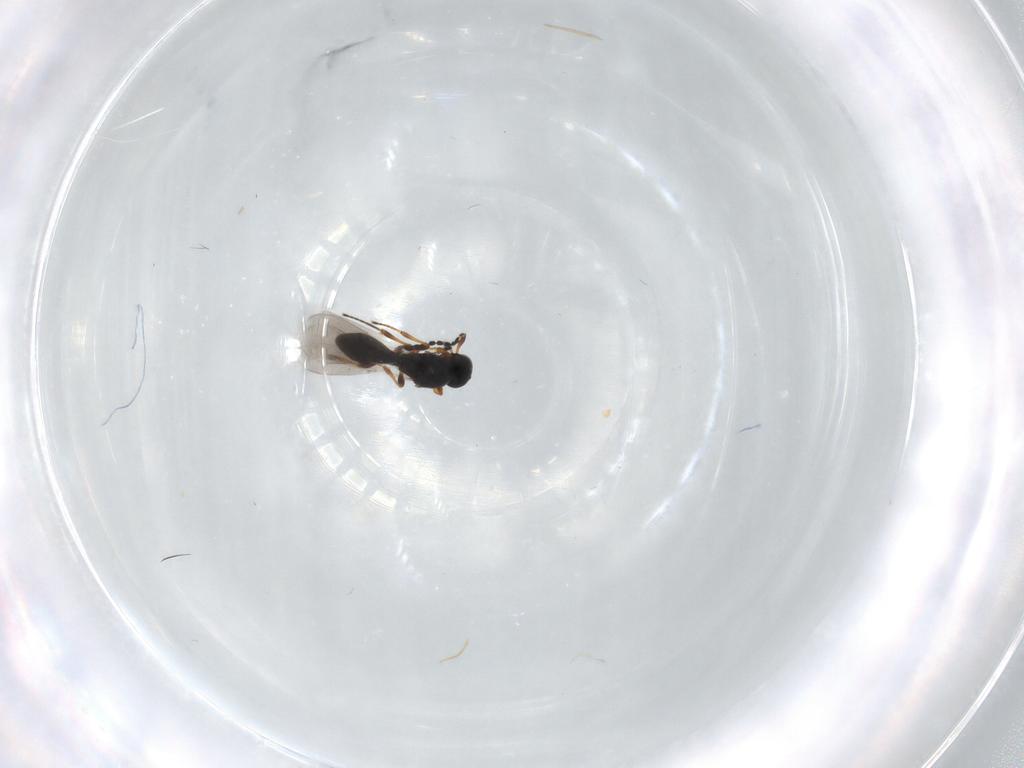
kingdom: Animalia
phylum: Arthropoda
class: Insecta
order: Hymenoptera
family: Platygastridae
